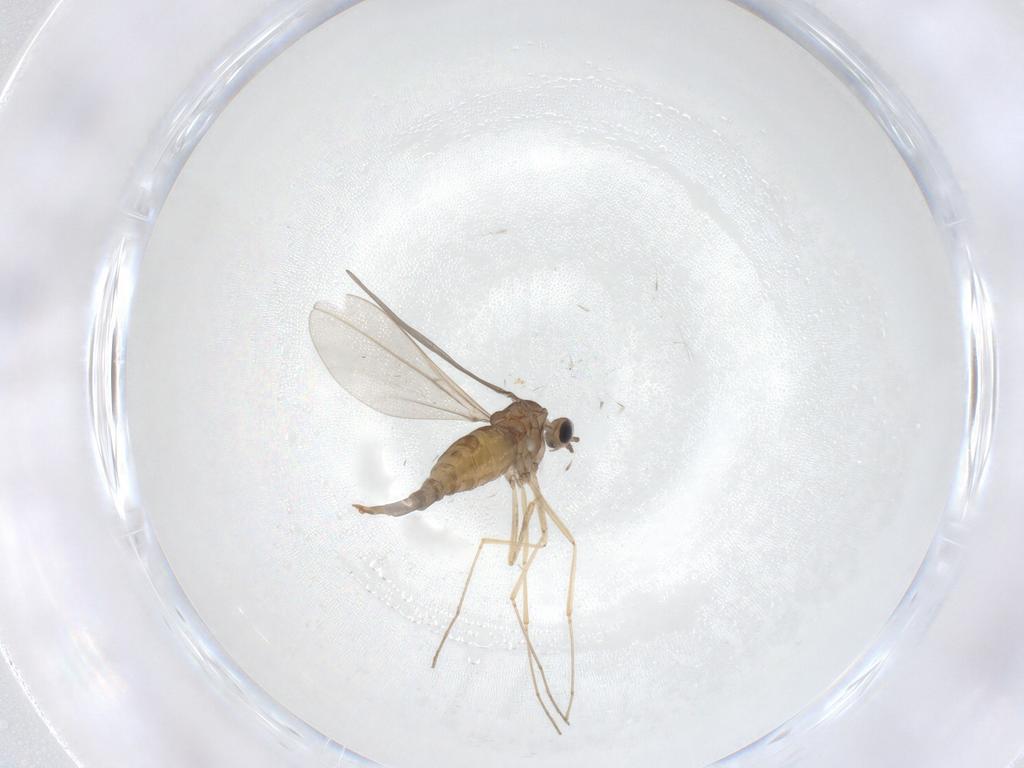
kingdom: Animalia
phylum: Arthropoda
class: Insecta
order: Diptera
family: Cecidomyiidae
